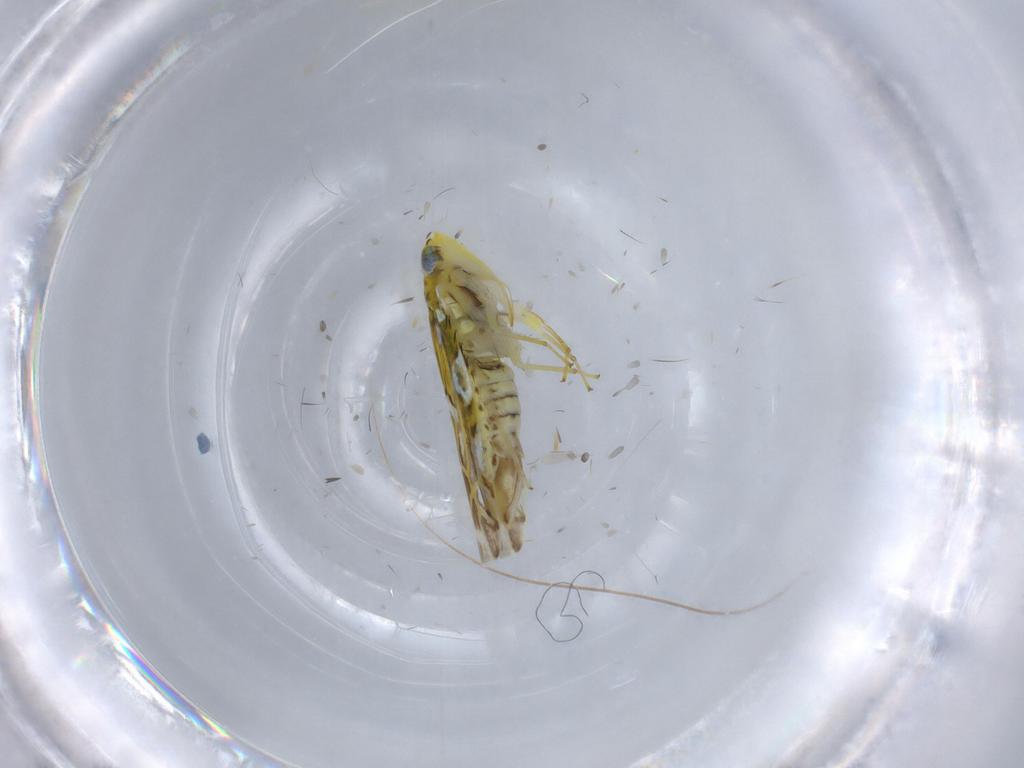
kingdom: Animalia
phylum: Arthropoda
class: Insecta
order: Hemiptera
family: Cicadellidae
